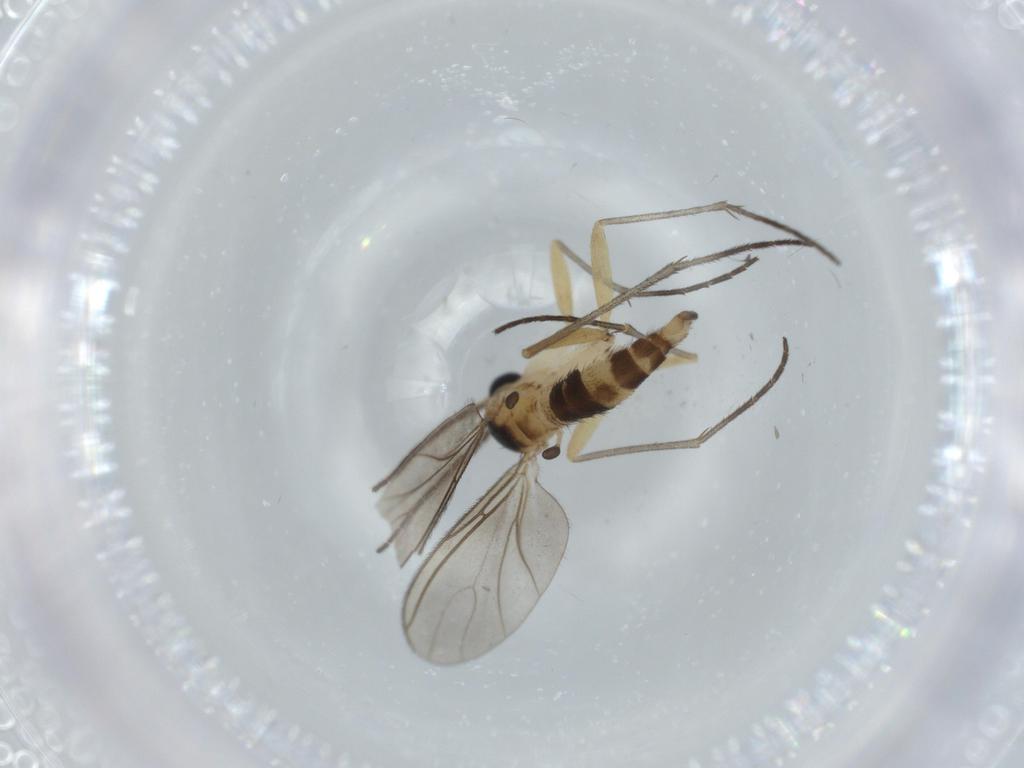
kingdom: Animalia
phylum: Arthropoda
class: Insecta
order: Diptera
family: Sciaridae
